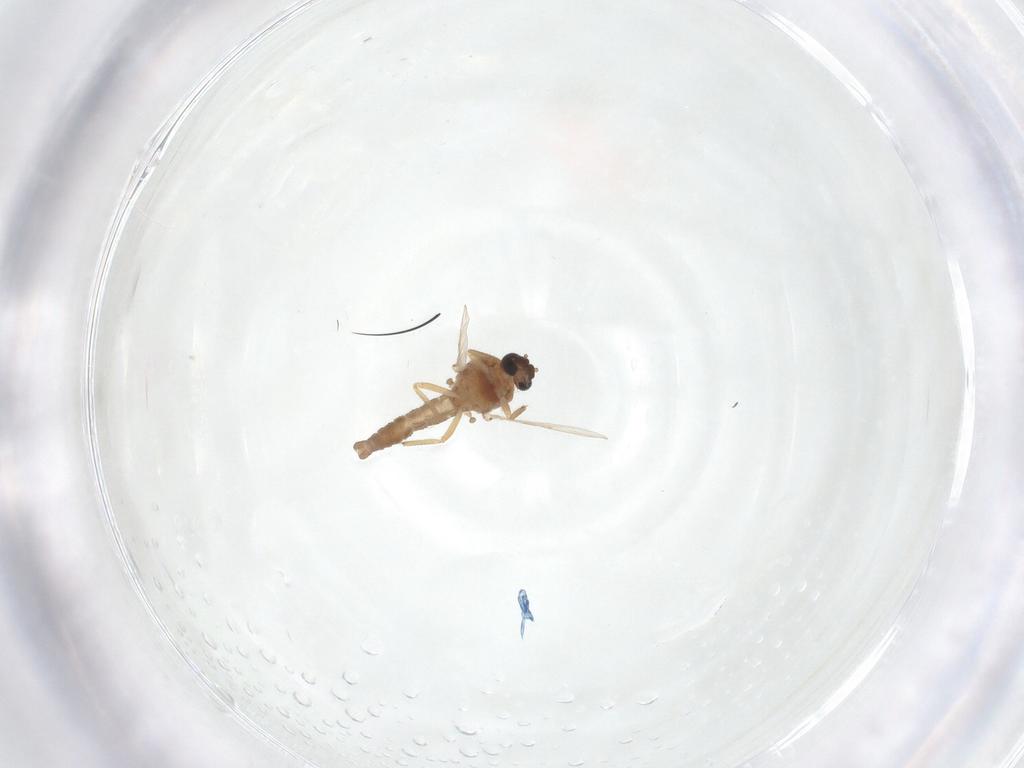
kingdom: Animalia
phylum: Arthropoda
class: Insecta
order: Diptera
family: Ceratopogonidae
